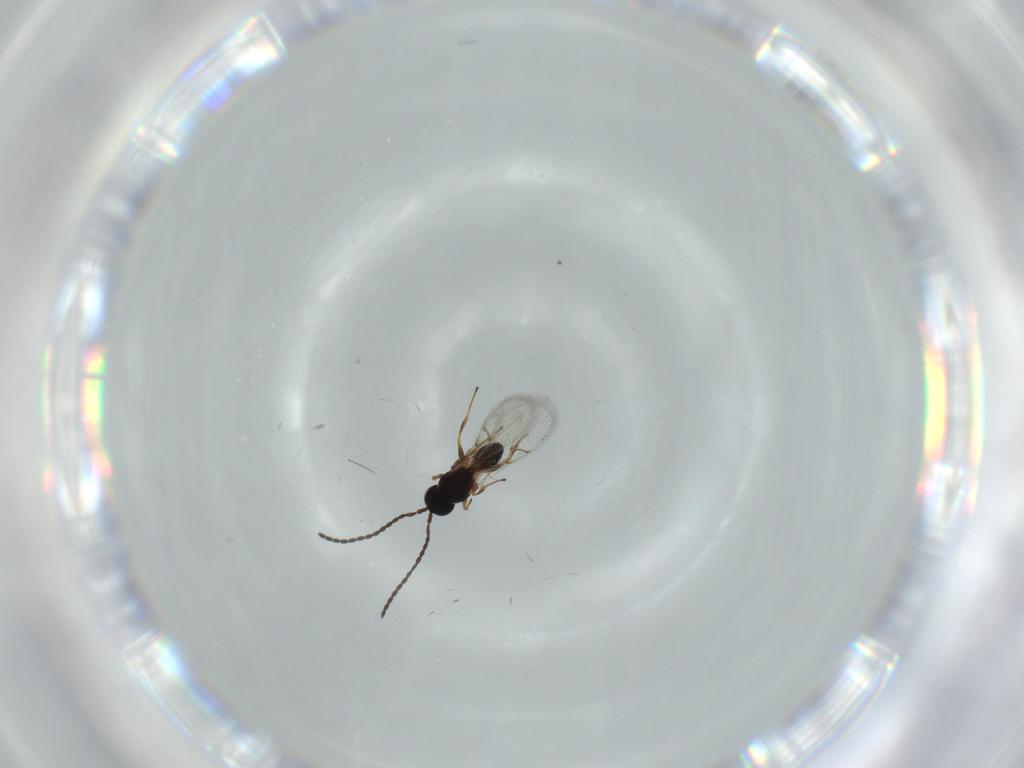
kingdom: Animalia
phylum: Arthropoda
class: Insecta
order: Hymenoptera
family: Figitidae
